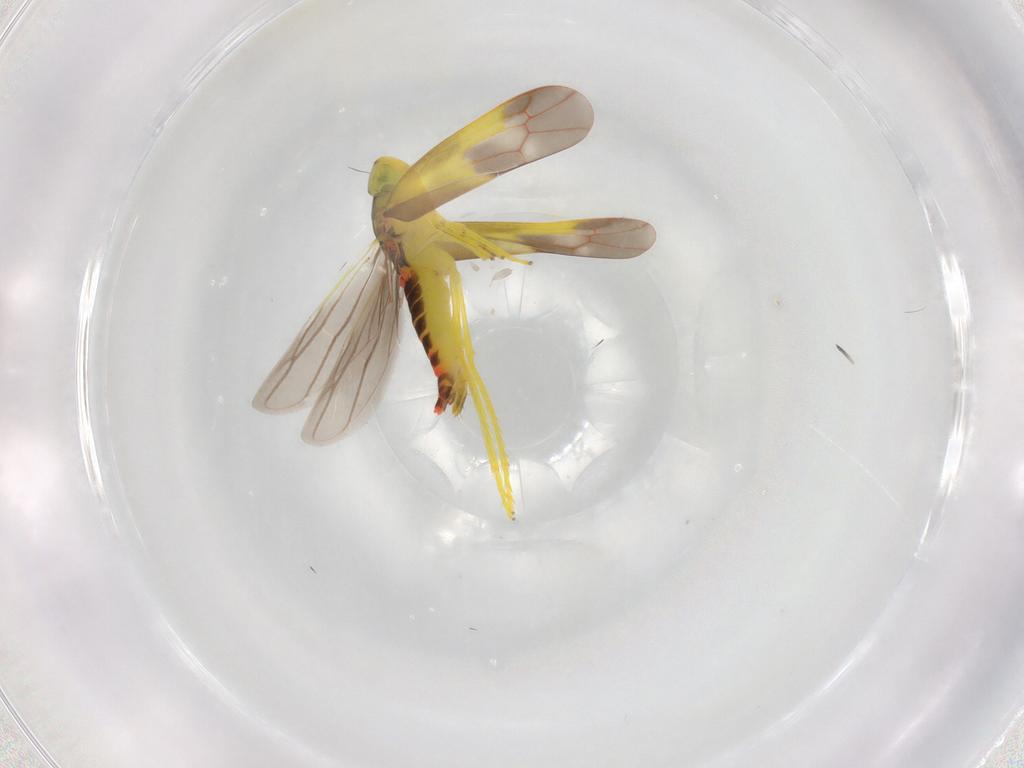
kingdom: Animalia
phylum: Arthropoda
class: Insecta
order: Hemiptera
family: Cicadellidae
